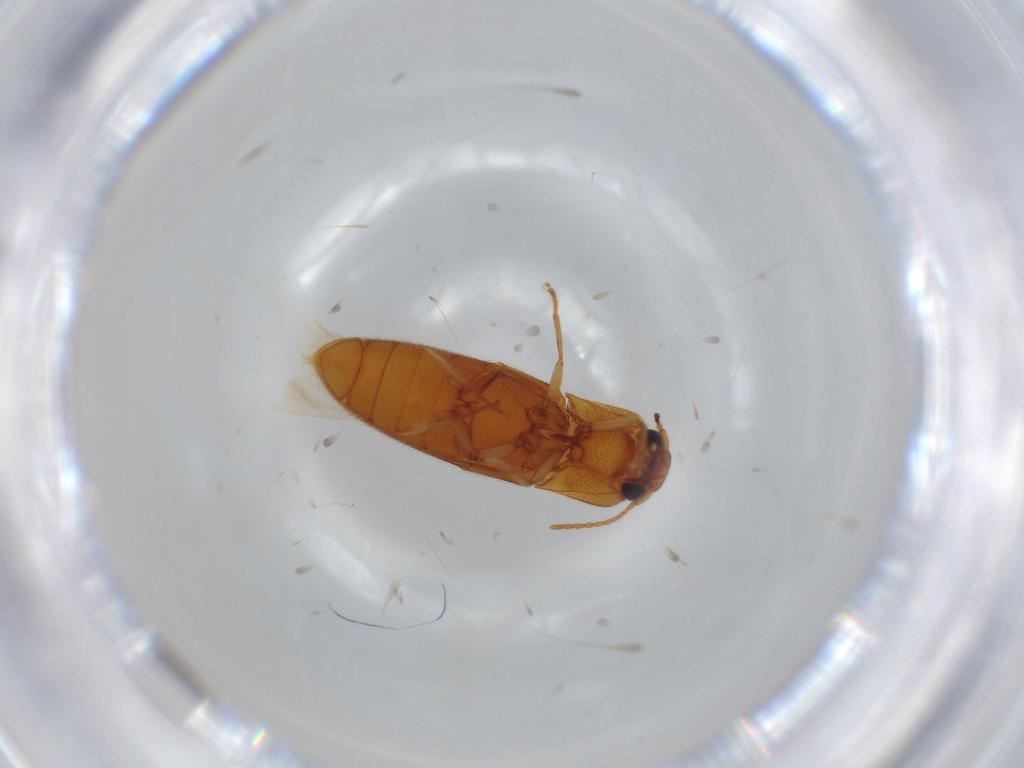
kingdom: Animalia
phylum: Arthropoda
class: Insecta
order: Coleoptera
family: Elateridae
